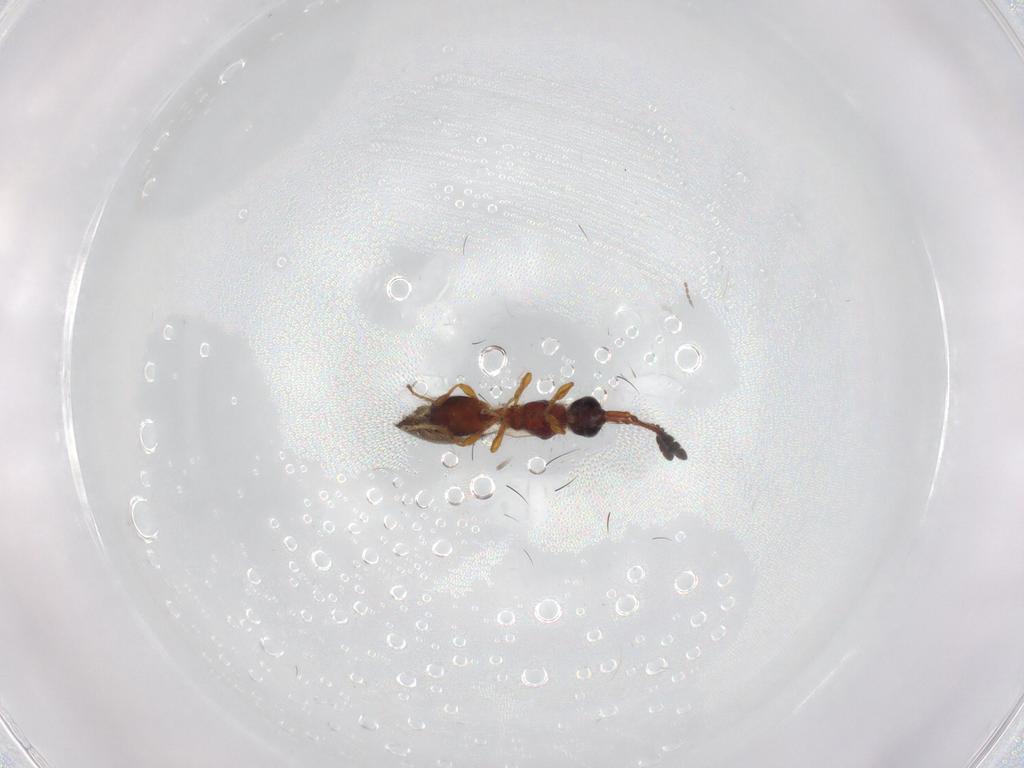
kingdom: Animalia
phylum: Arthropoda
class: Insecta
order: Hymenoptera
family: Diapriidae
